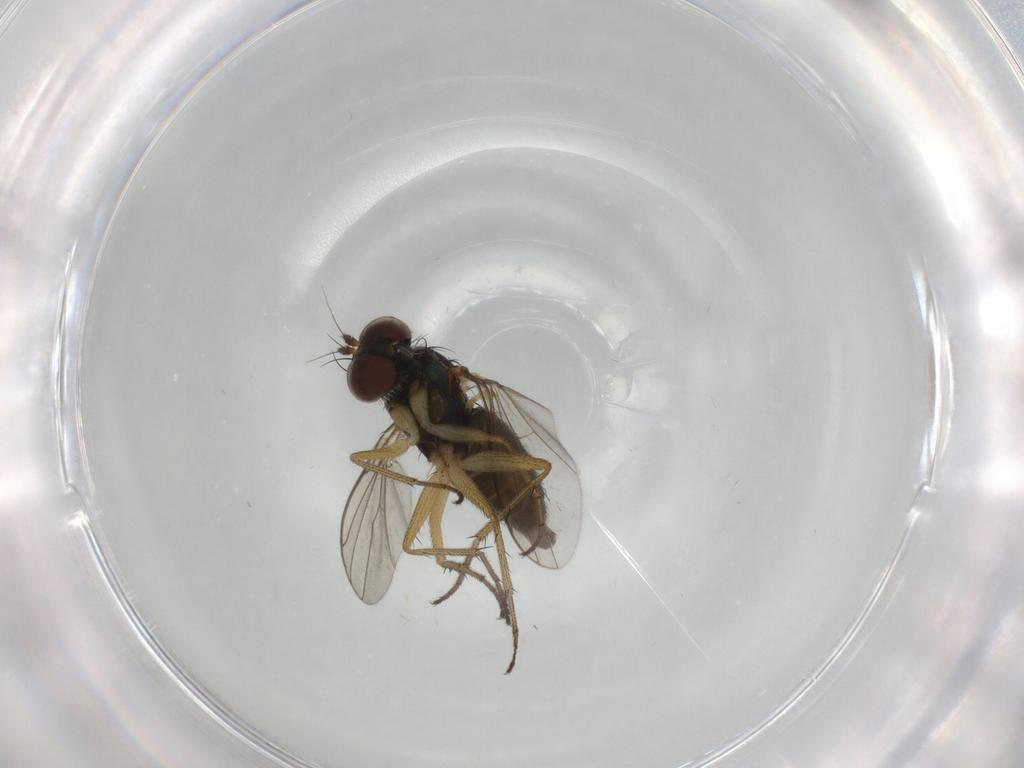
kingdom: Animalia
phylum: Arthropoda
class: Insecta
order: Diptera
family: Dolichopodidae
